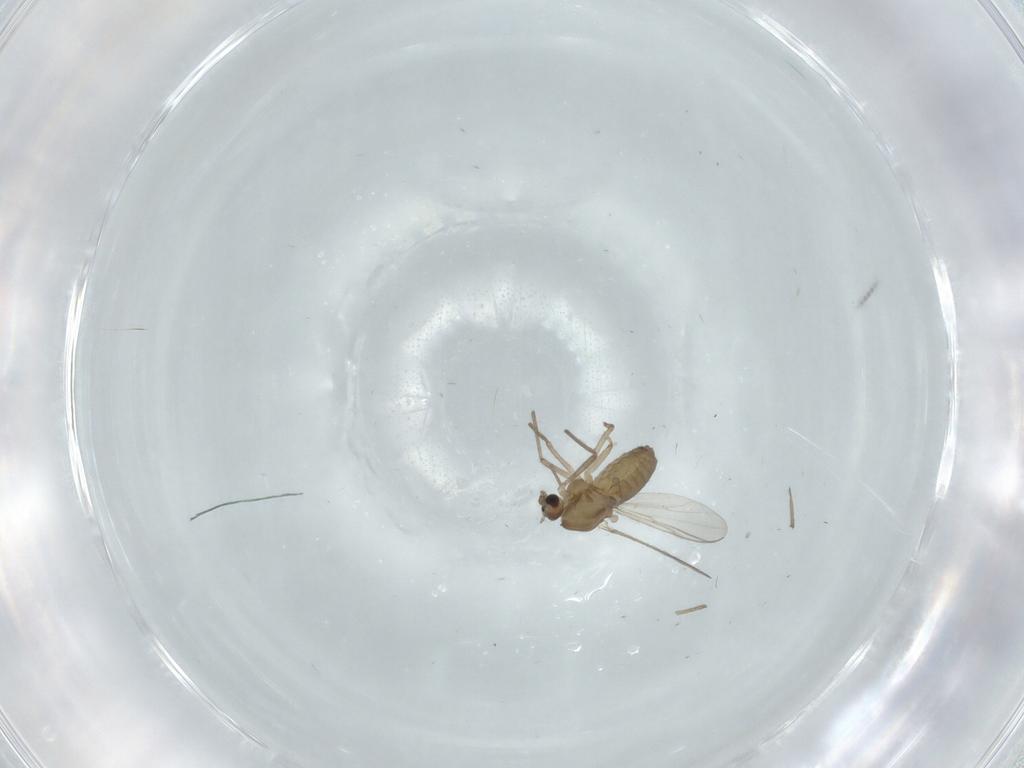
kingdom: Animalia
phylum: Arthropoda
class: Insecta
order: Diptera
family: Chironomidae
